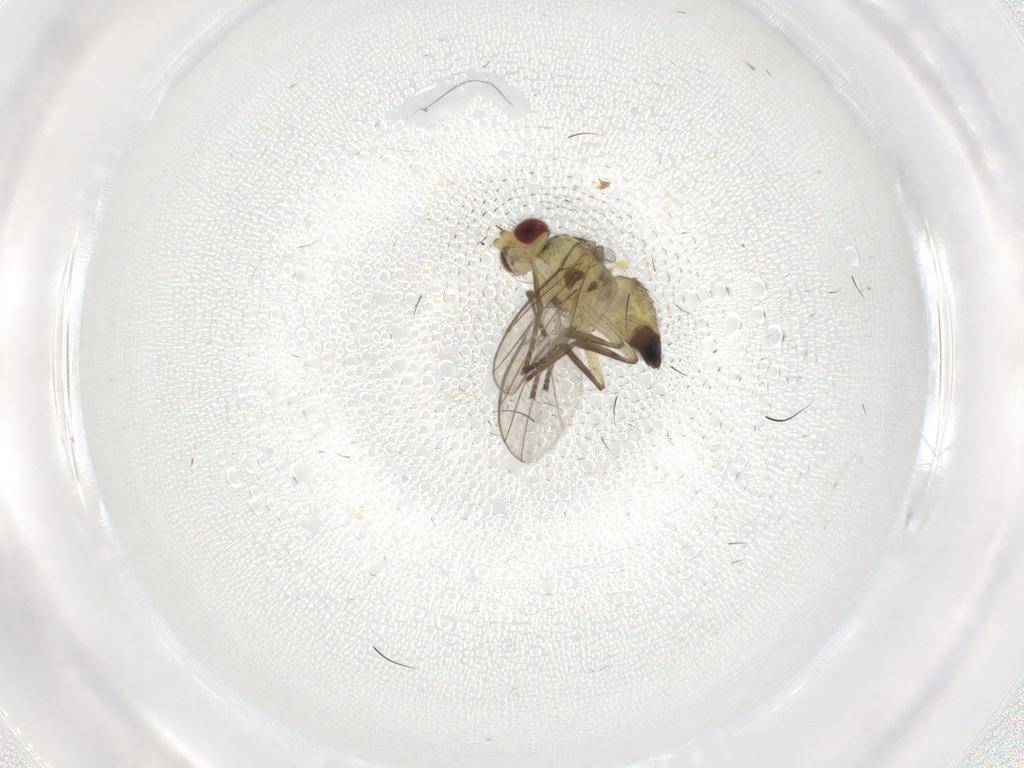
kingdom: Animalia
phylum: Arthropoda
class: Insecta
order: Diptera
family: Agromyzidae
